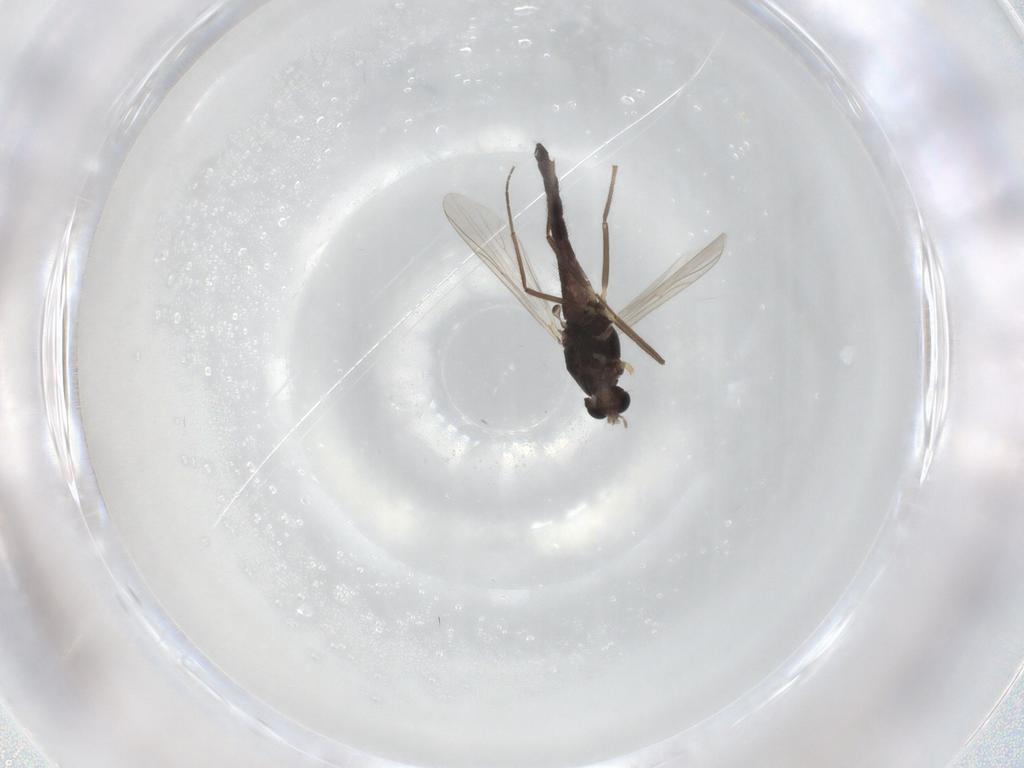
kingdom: Animalia
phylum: Arthropoda
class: Insecta
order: Diptera
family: Chironomidae
